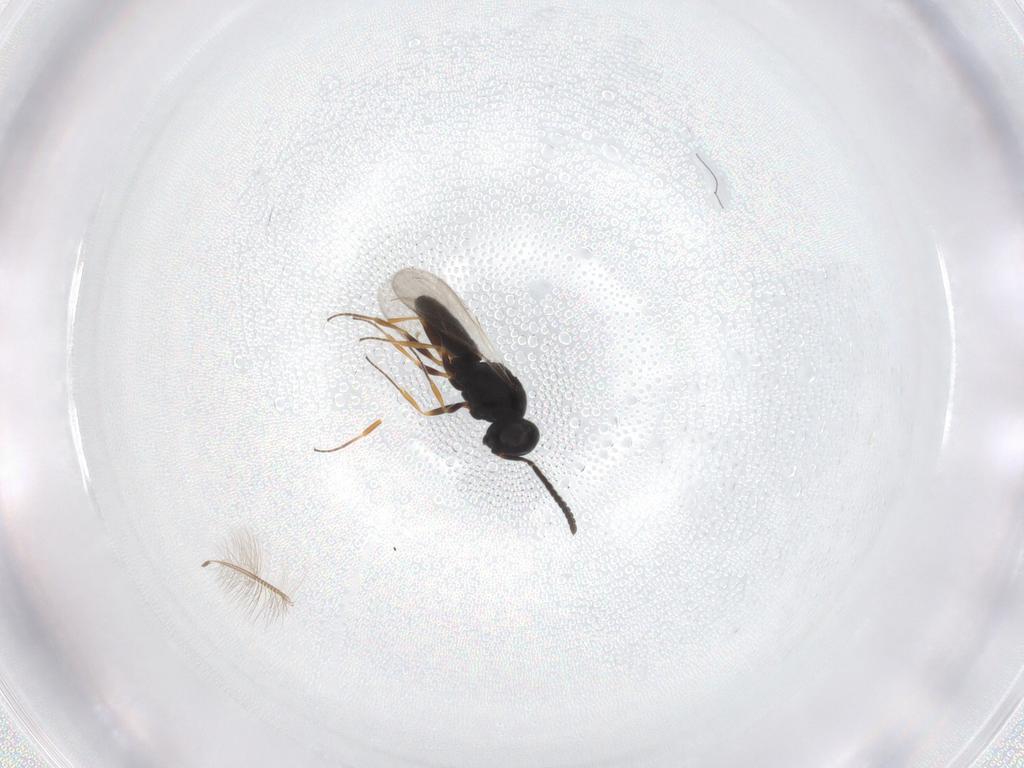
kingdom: Animalia
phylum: Arthropoda
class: Insecta
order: Hymenoptera
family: Scelionidae
